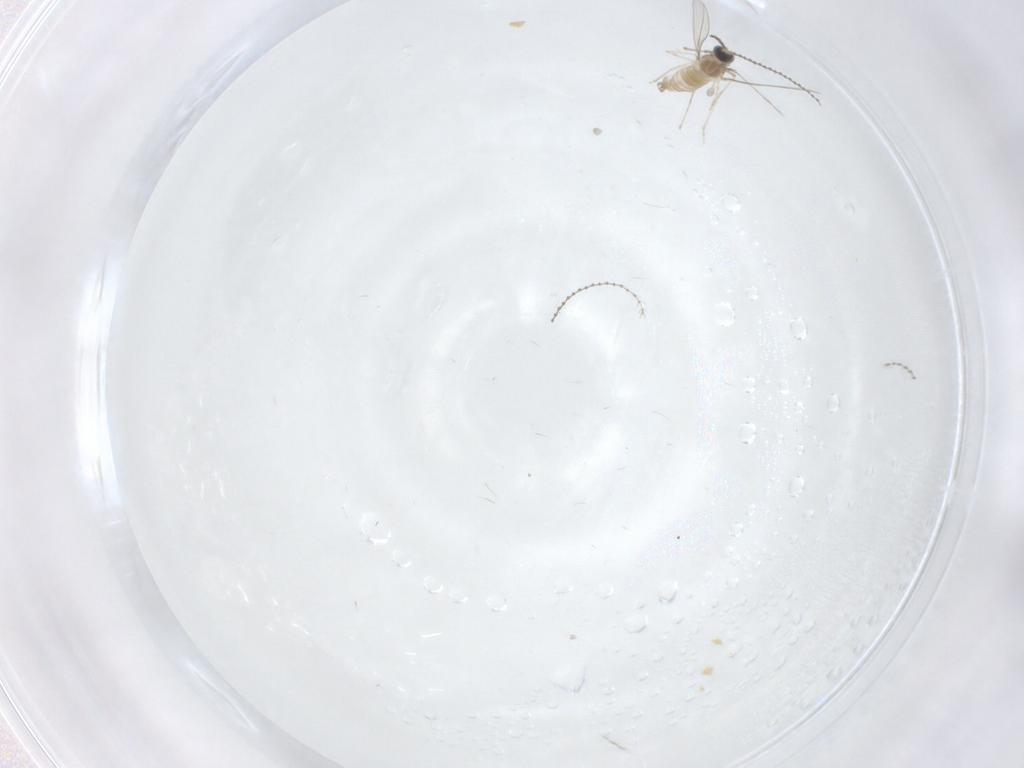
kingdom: Animalia
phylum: Arthropoda
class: Insecta
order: Diptera
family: Cecidomyiidae
